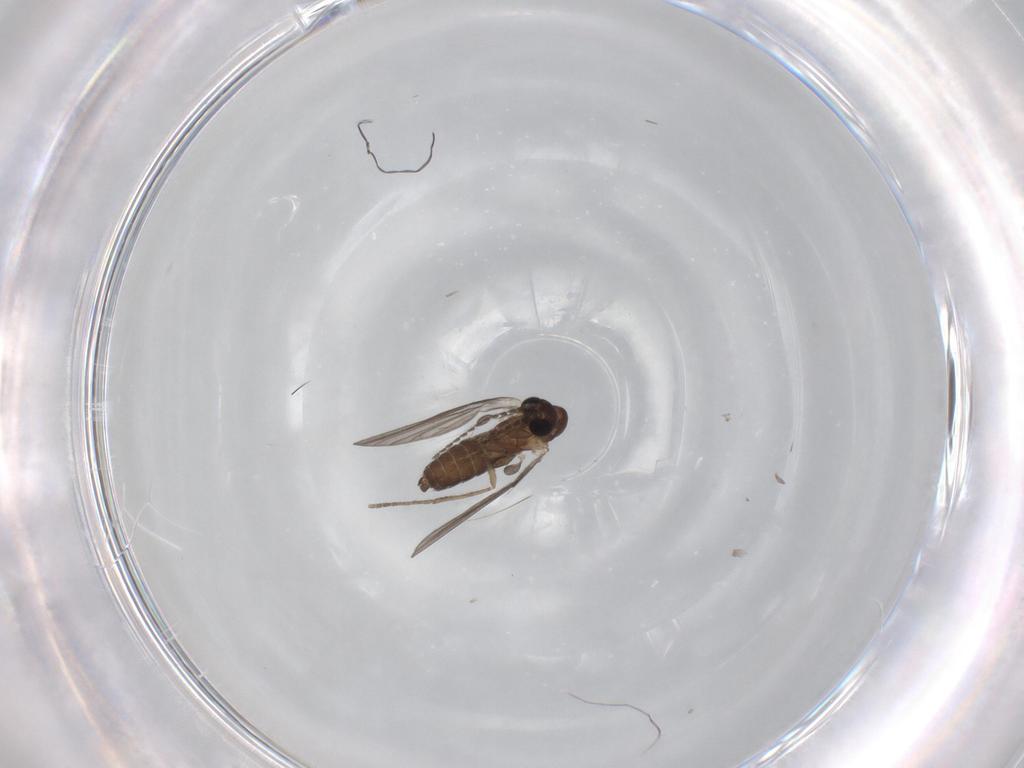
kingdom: Animalia
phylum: Arthropoda
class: Insecta
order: Diptera
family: Psychodidae
